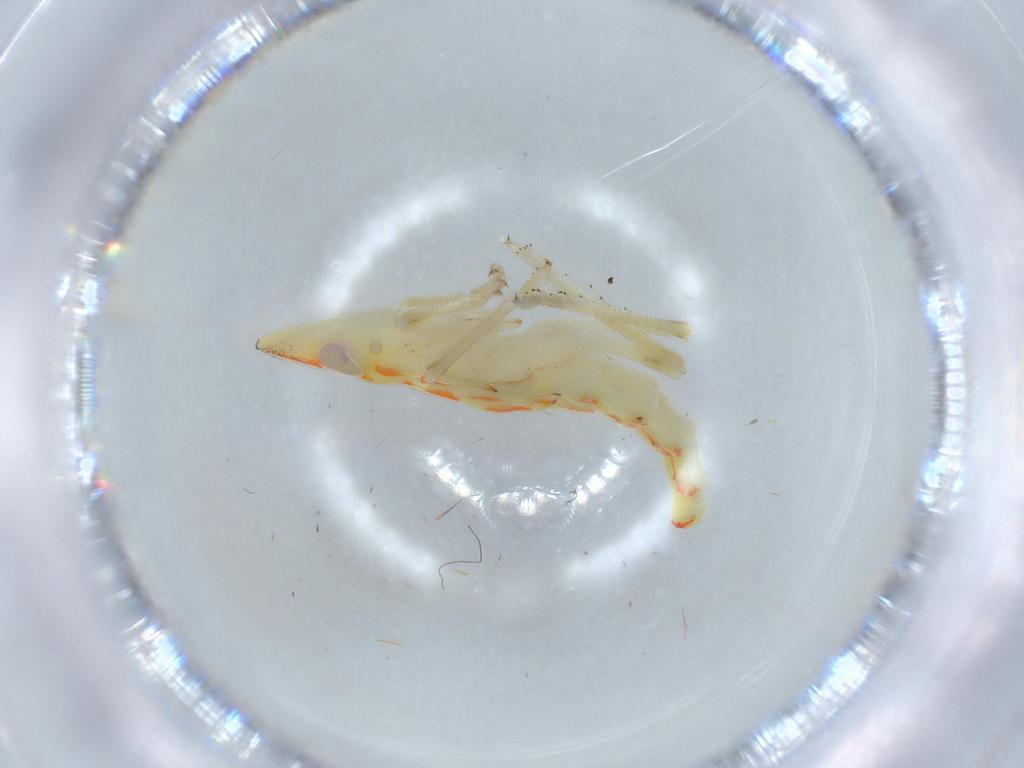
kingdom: Animalia
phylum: Arthropoda
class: Insecta
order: Hemiptera
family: Tropiduchidae
